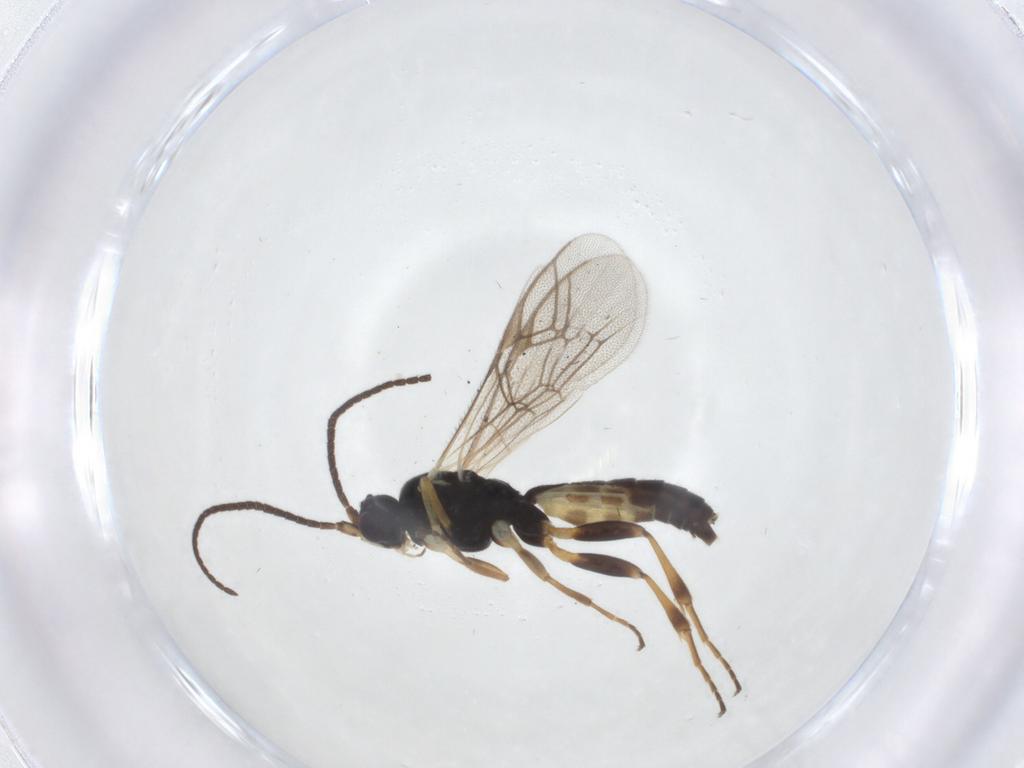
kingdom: Animalia
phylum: Arthropoda
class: Insecta
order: Hymenoptera
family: Ichneumonidae
